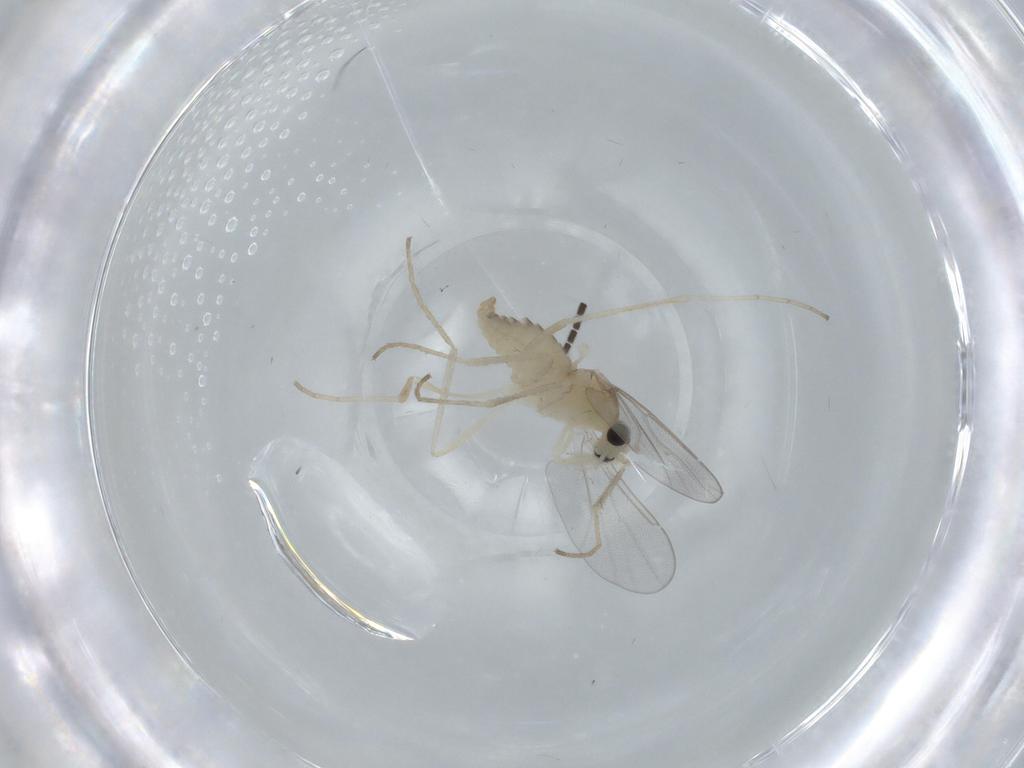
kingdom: Animalia
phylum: Arthropoda
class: Insecta
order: Diptera
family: Cecidomyiidae
